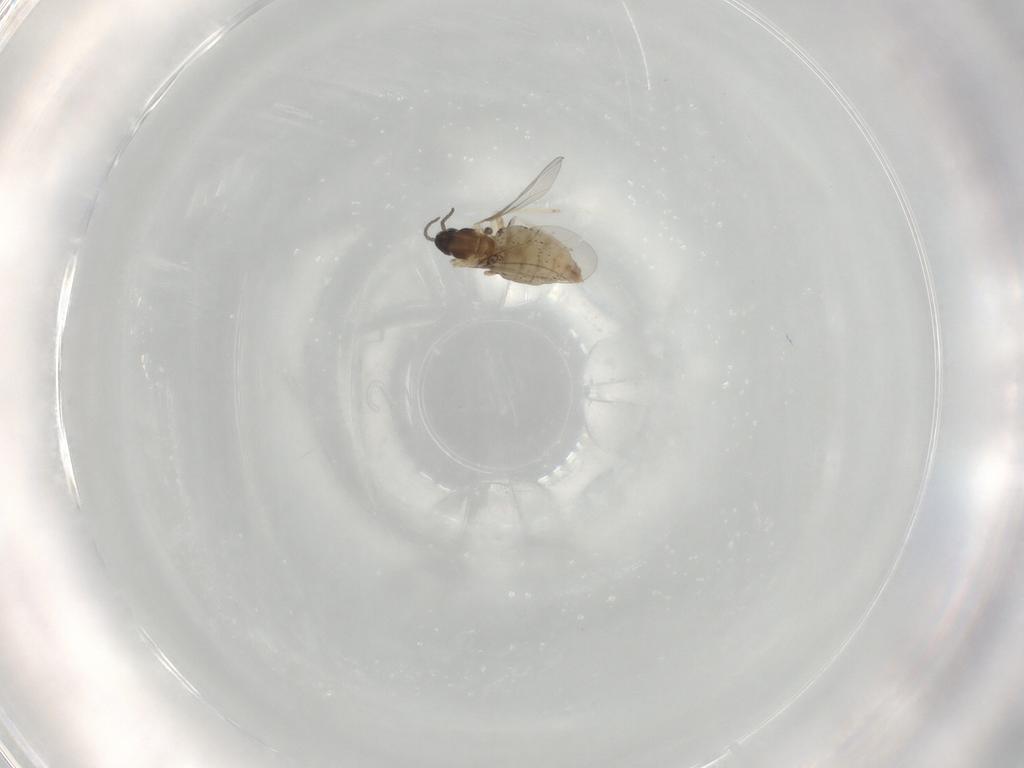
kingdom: Animalia
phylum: Arthropoda
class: Insecta
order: Diptera
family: Cecidomyiidae
